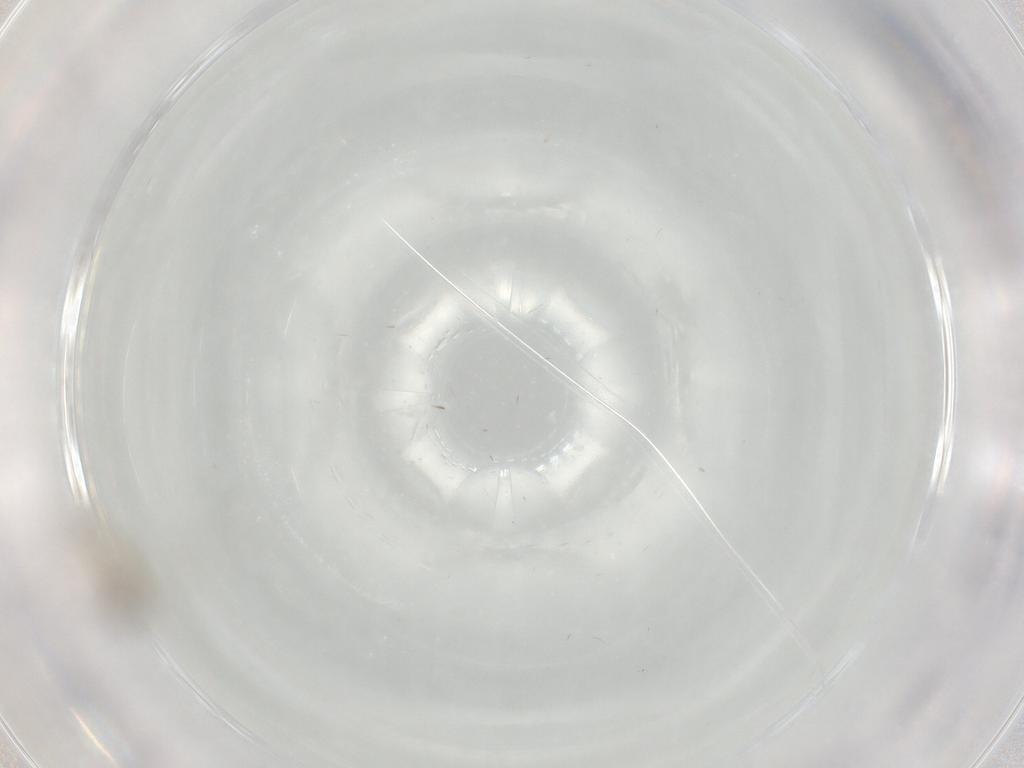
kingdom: Animalia
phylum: Arthropoda
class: Insecta
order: Diptera
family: Cecidomyiidae
